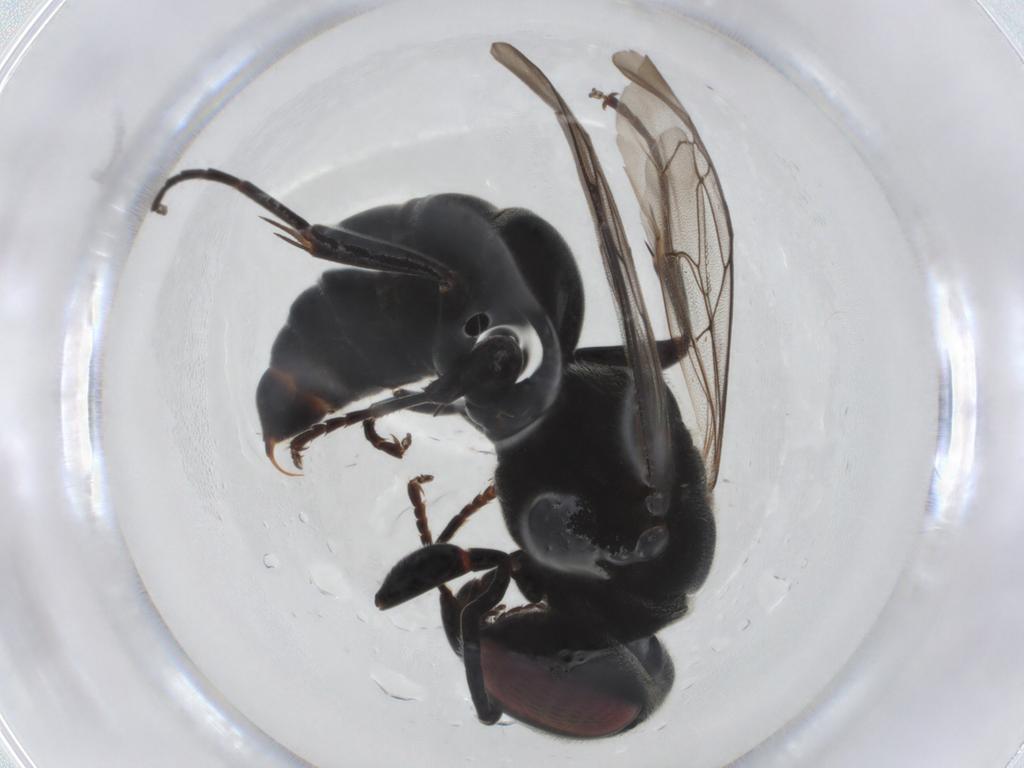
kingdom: Animalia
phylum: Arthropoda
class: Insecta
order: Hymenoptera
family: Crabronidae
